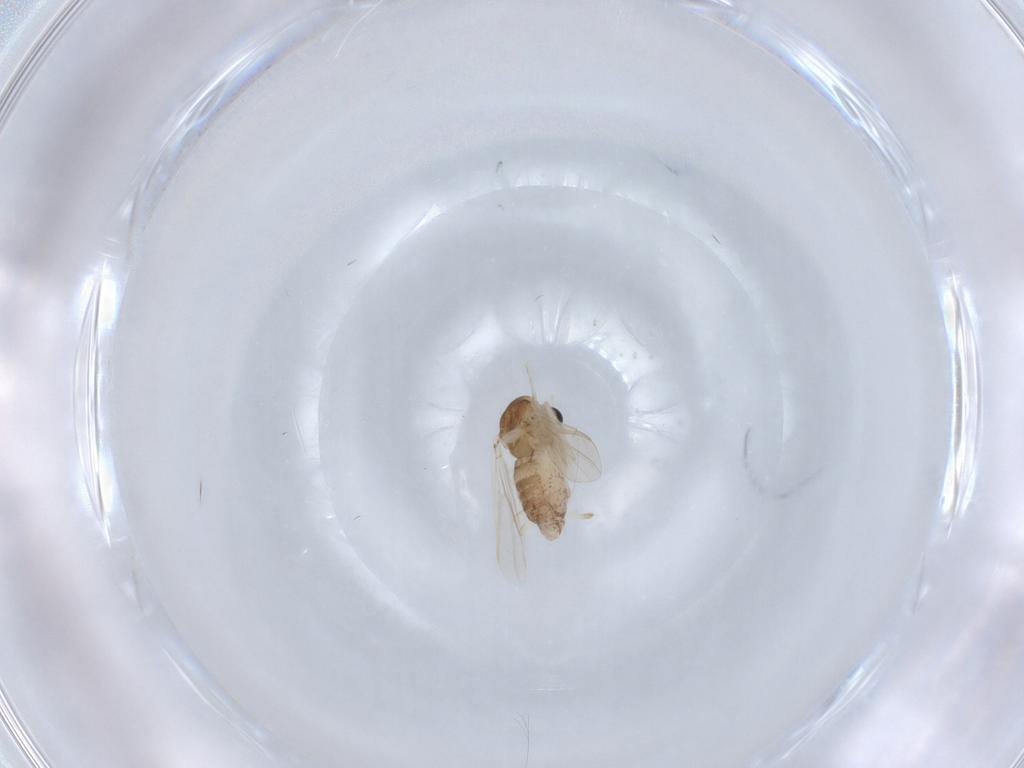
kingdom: Animalia
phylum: Arthropoda
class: Insecta
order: Diptera
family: Chironomidae
